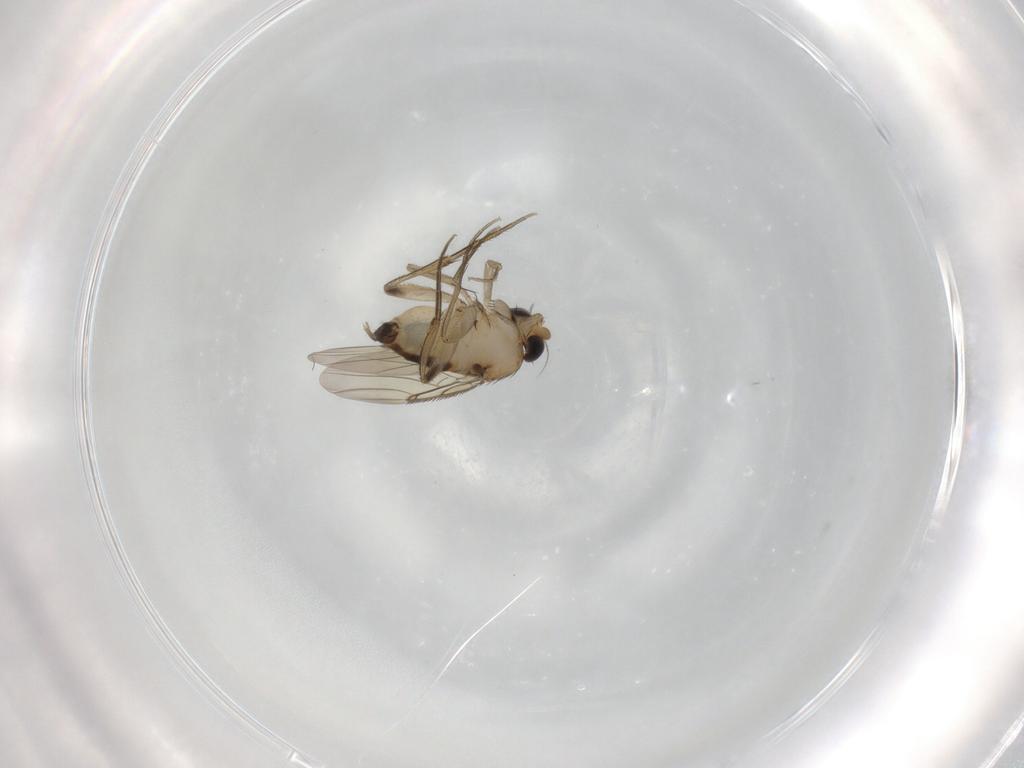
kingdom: Animalia
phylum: Arthropoda
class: Insecta
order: Diptera
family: Phoridae
